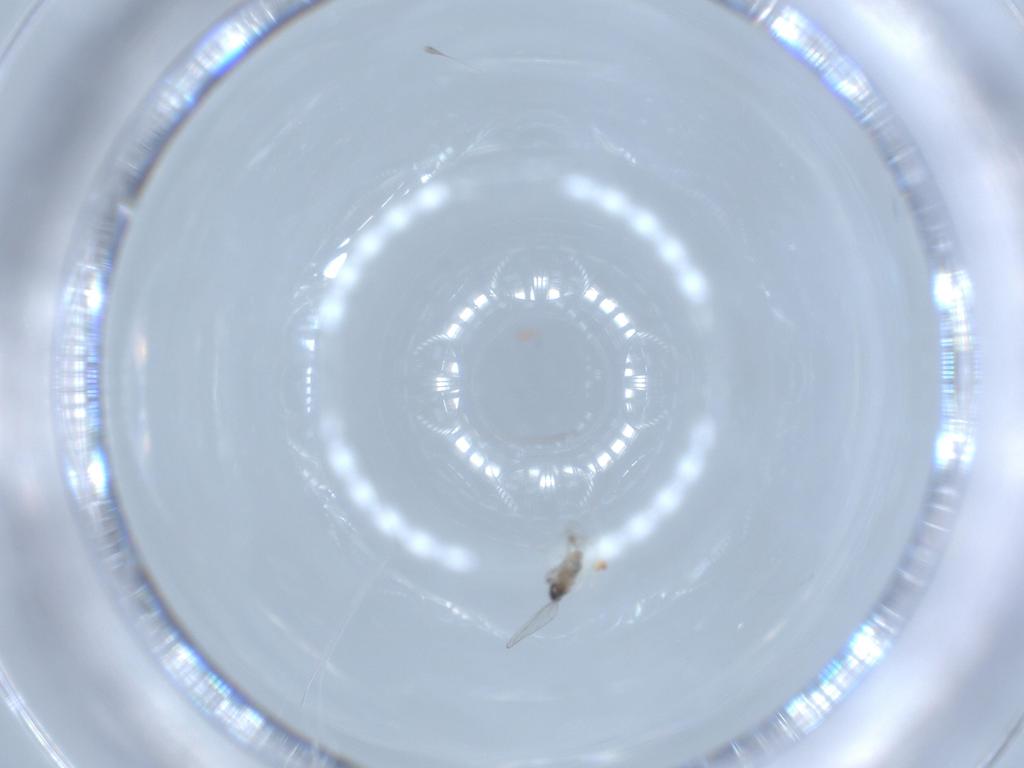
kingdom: Animalia
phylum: Arthropoda
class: Insecta
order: Diptera
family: Cecidomyiidae
